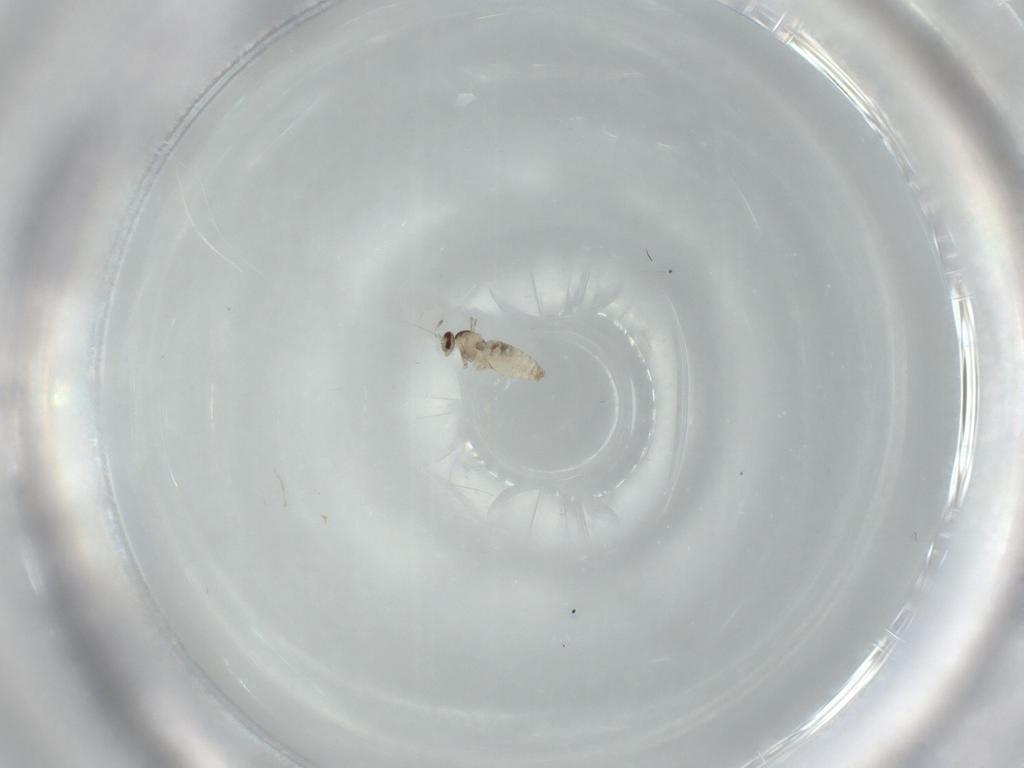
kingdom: Animalia
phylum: Arthropoda
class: Insecta
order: Diptera
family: Cecidomyiidae
